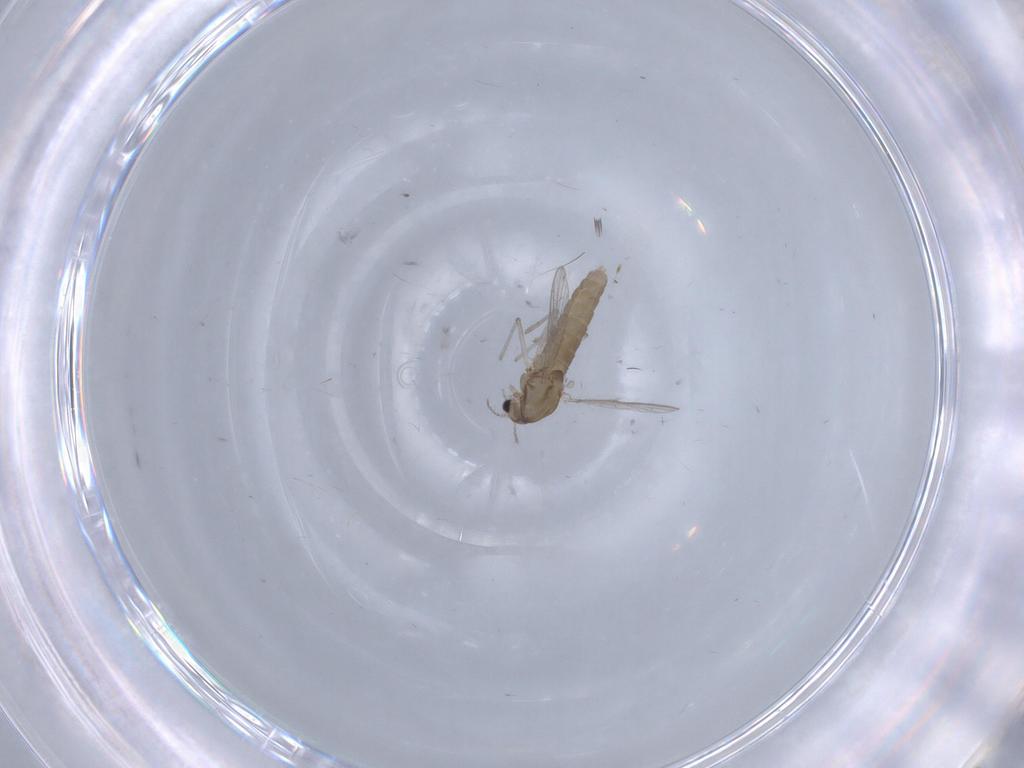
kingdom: Animalia
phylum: Arthropoda
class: Insecta
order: Diptera
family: Chironomidae
